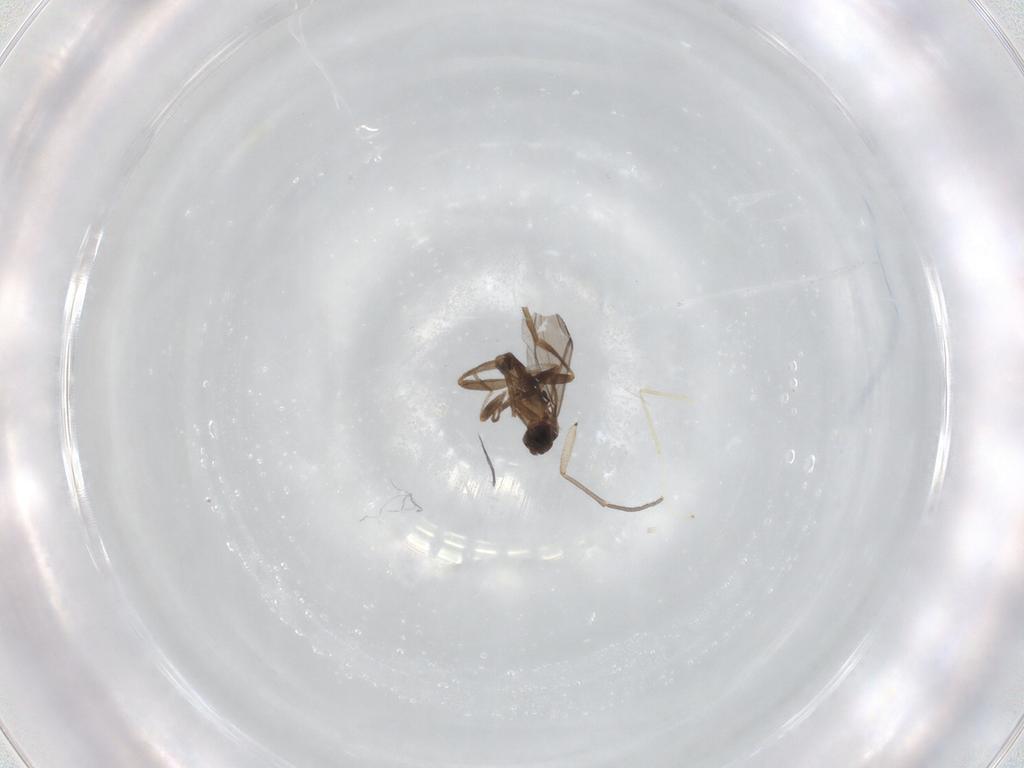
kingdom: Animalia
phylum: Arthropoda
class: Insecta
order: Diptera
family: Phoridae
